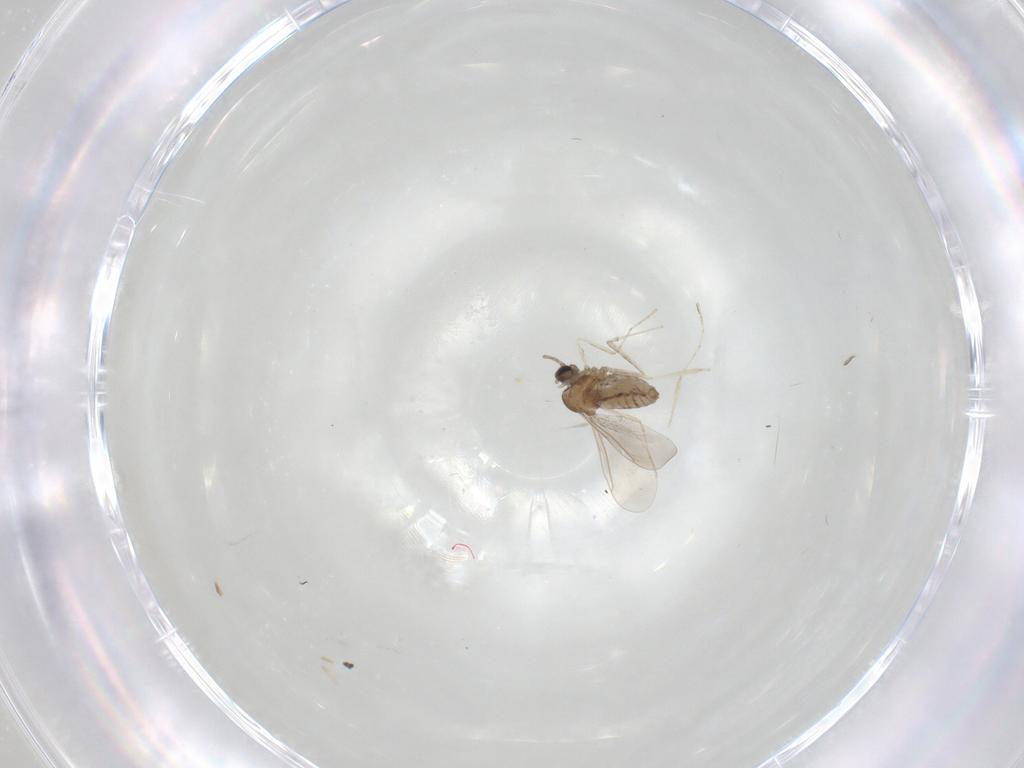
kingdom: Animalia
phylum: Arthropoda
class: Insecta
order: Diptera
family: Cecidomyiidae
